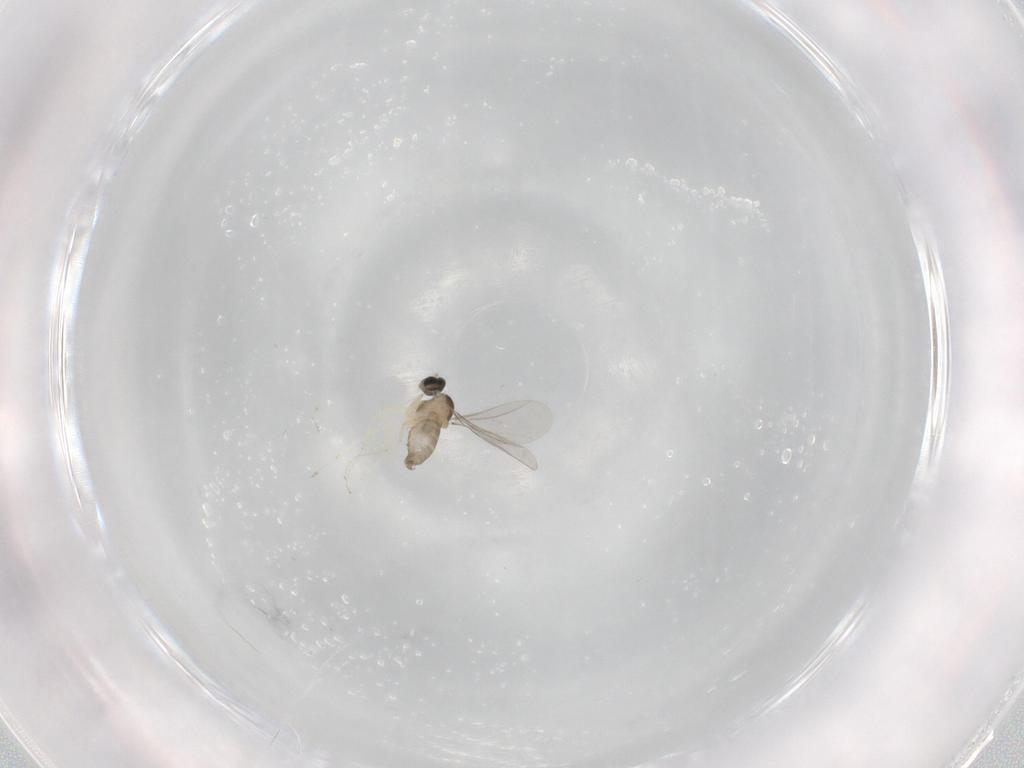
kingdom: Animalia
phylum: Arthropoda
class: Insecta
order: Diptera
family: Cecidomyiidae
